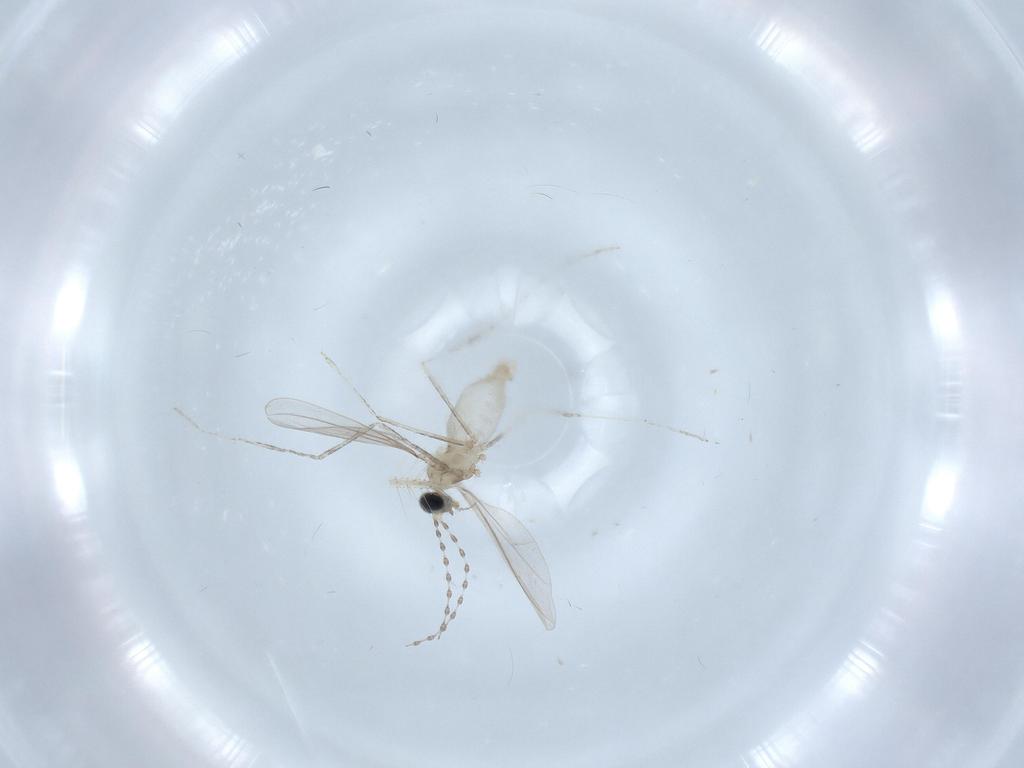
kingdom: Animalia
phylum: Arthropoda
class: Insecta
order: Diptera
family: Cecidomyiidae
